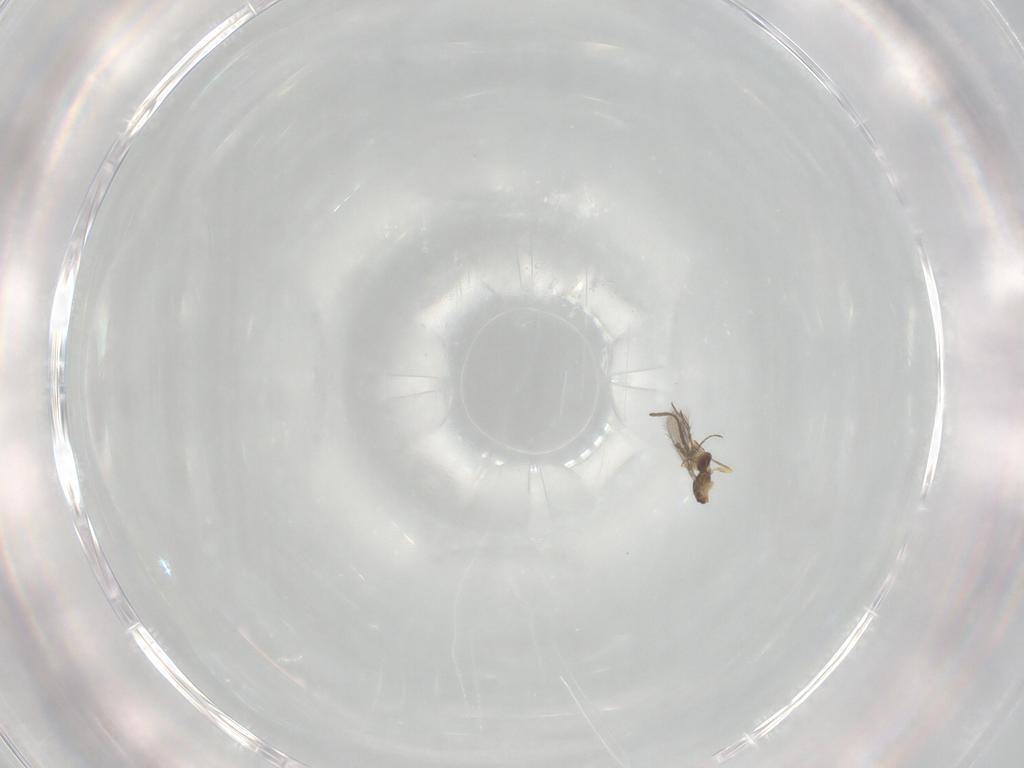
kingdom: Animalia
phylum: Arthropoda
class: Insecta
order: Hymenoptera
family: Mymaridae
